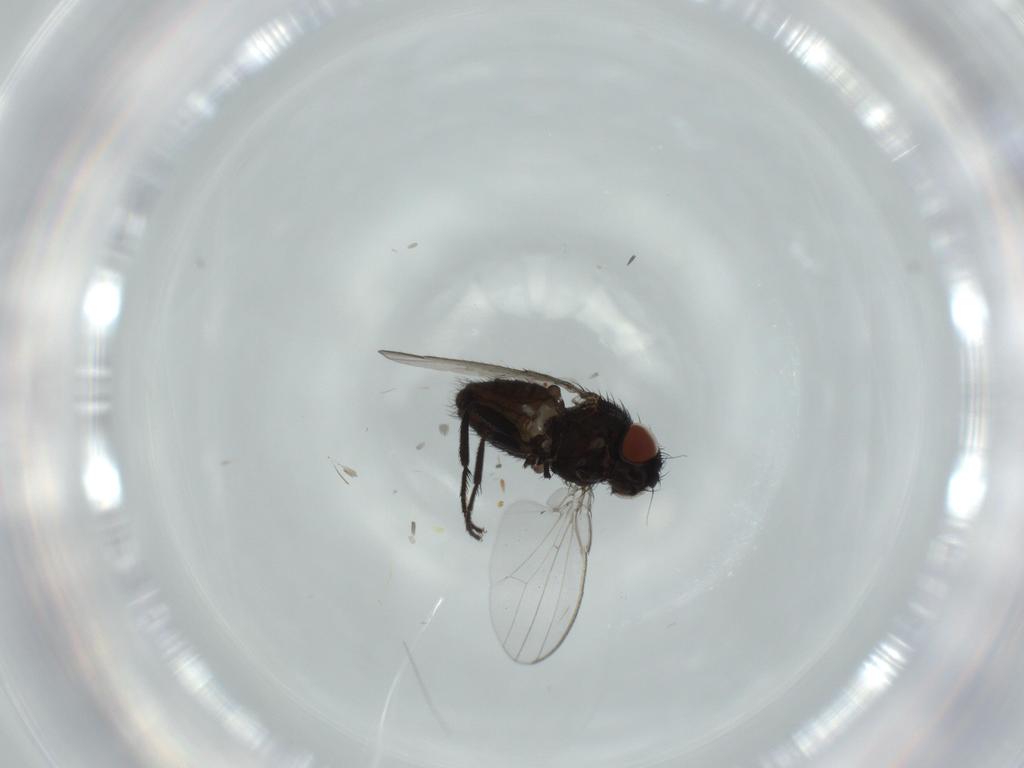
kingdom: Animalia
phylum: Arthropoda
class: Insecta
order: Diptera
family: Milichiidae
